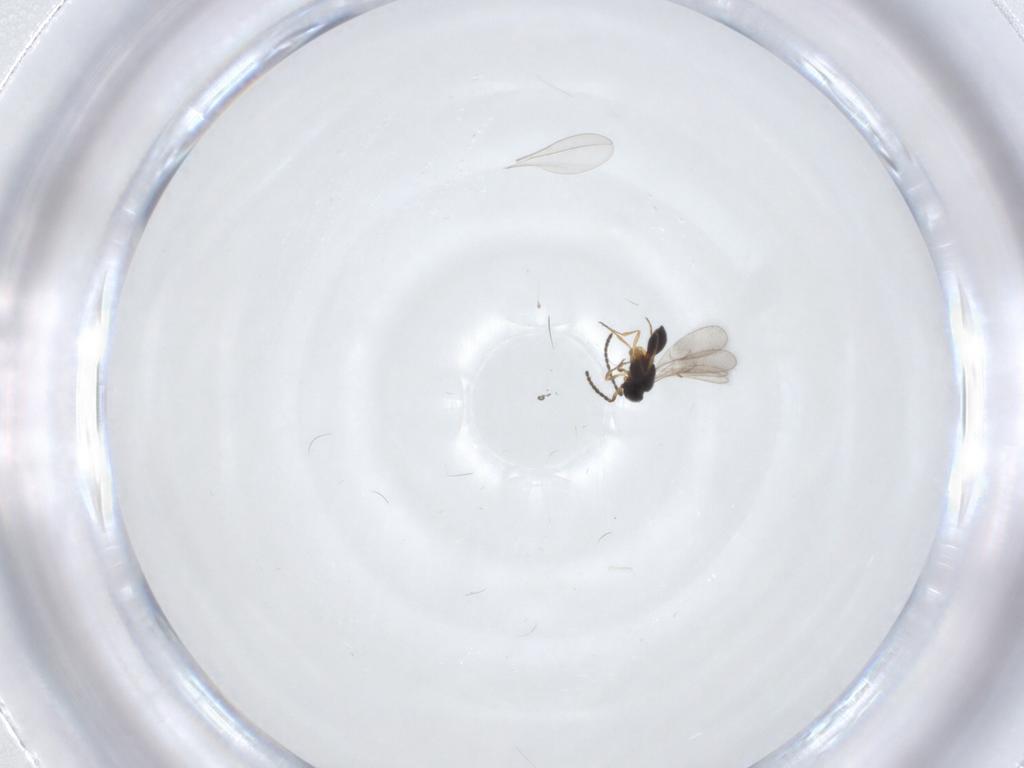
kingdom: Animalia
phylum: Arthropoda
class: Insecta
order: Hymenoptera
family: Scelionidae
